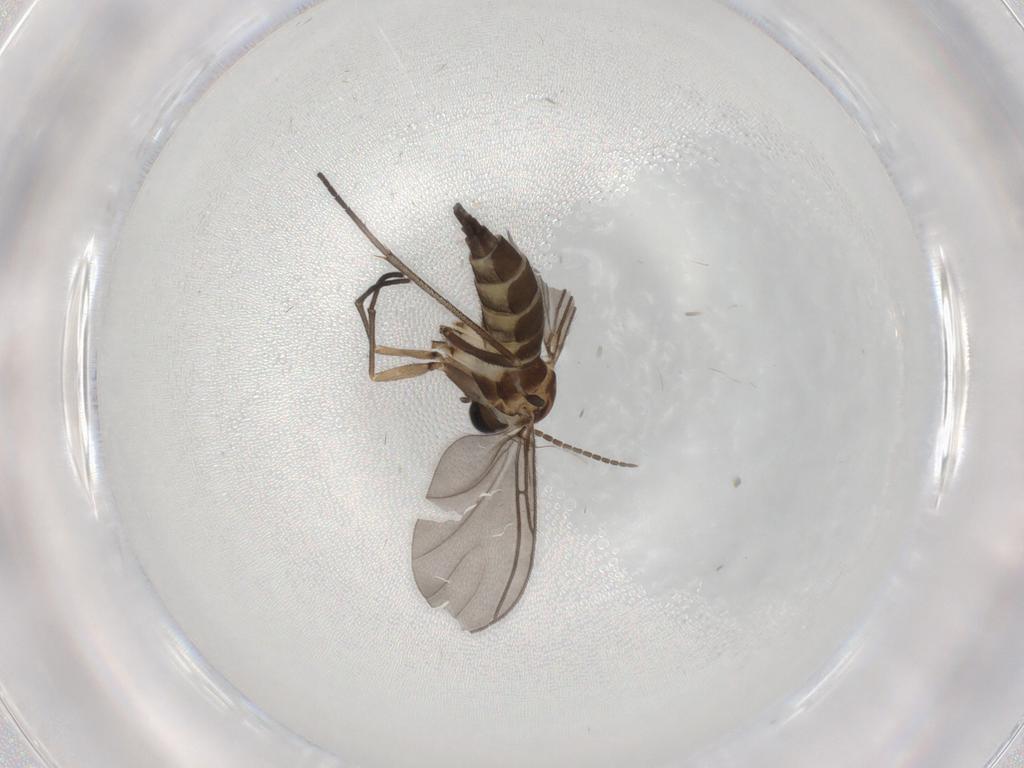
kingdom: Animalia
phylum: Arthropoda
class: Insecta
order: Diptera
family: Sciaridae
